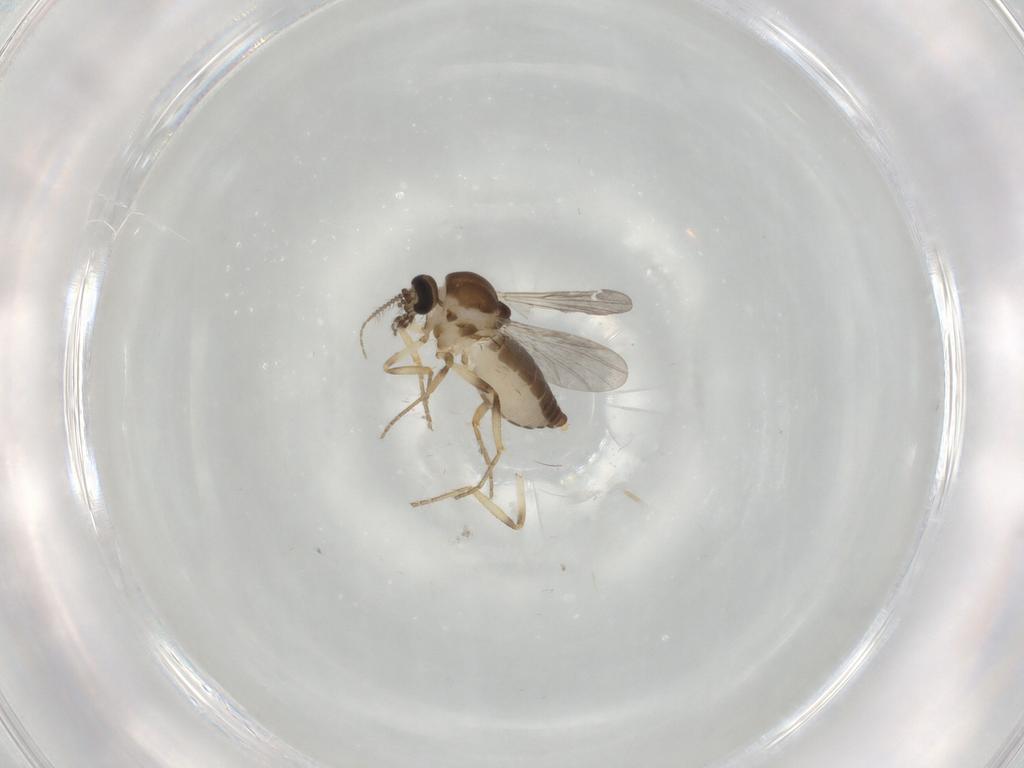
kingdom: Animalia
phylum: Arthropoda
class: Insecta
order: Diptera
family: Ceratopogonidae
